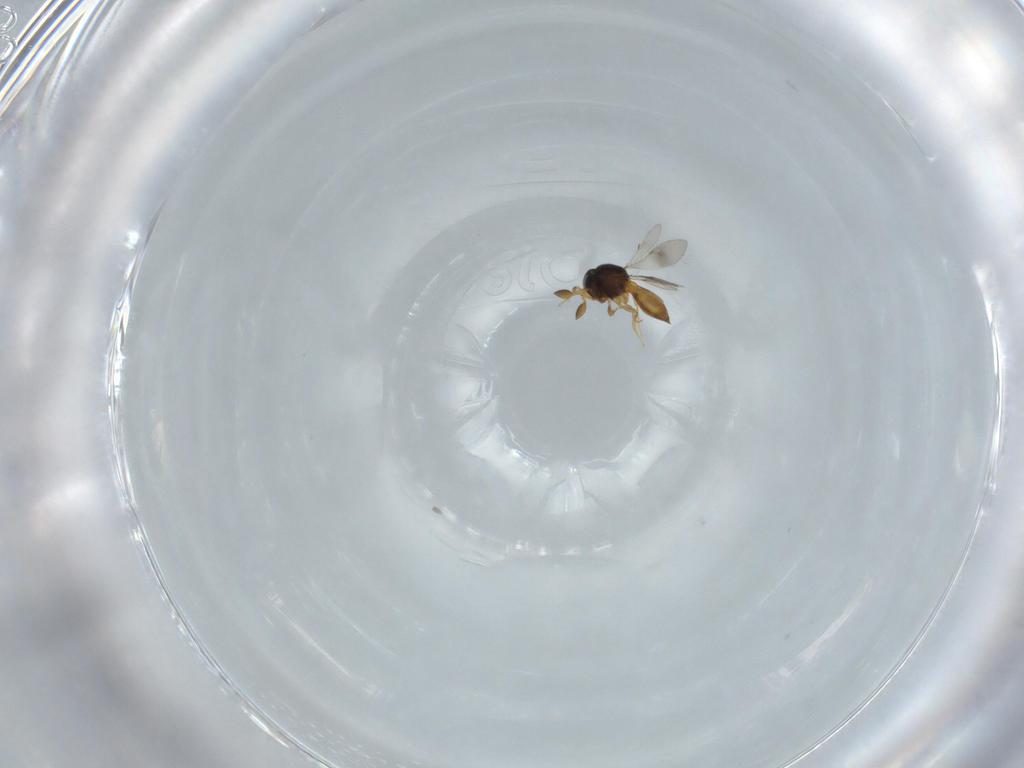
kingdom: Animalia
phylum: Arthropoda
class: Insecta
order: Hymenoptera
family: Scelionidae
